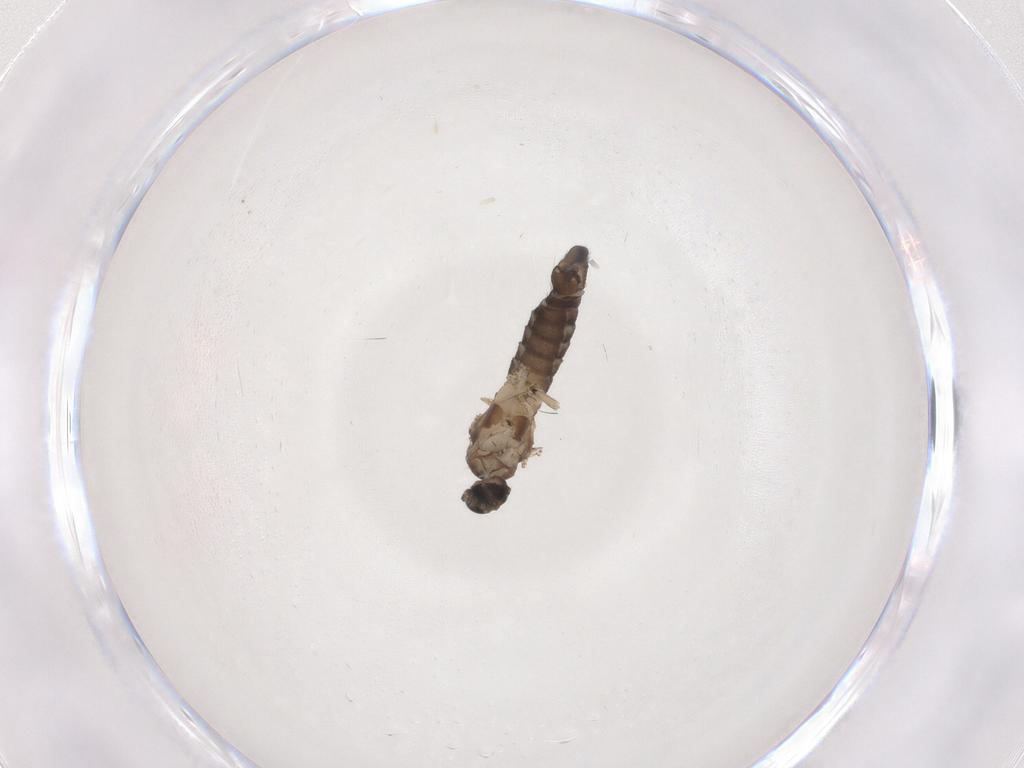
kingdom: Animalia
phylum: Arthropoda
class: Insecta
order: Diptera
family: Sciaridae
